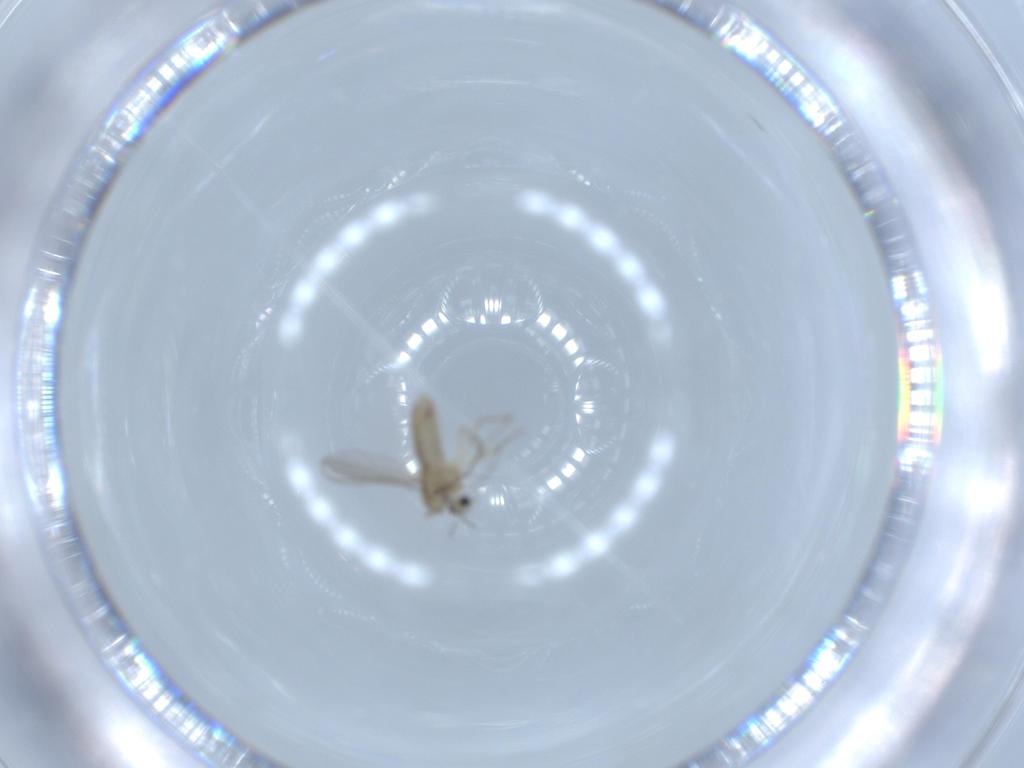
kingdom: Animalia
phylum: Arthropoda
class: Insecta
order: Diptera
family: Chironomidae
